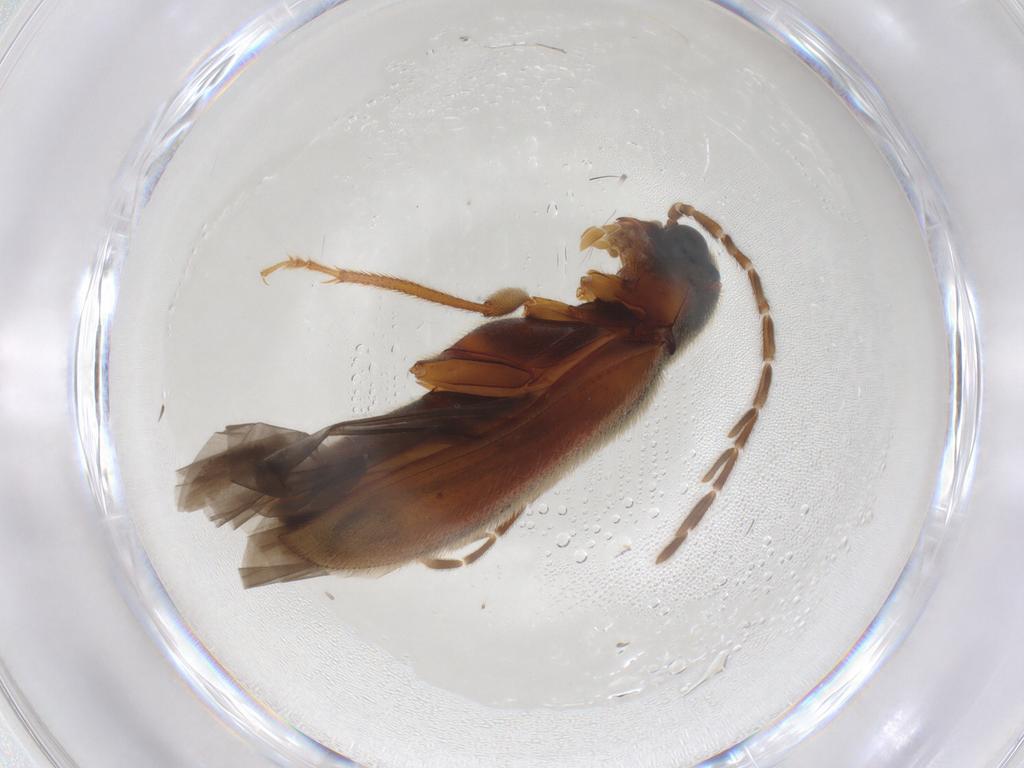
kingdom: Animalia
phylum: Arthropoda
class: Insecta
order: Coleoptera
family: Ptilodactylidae
